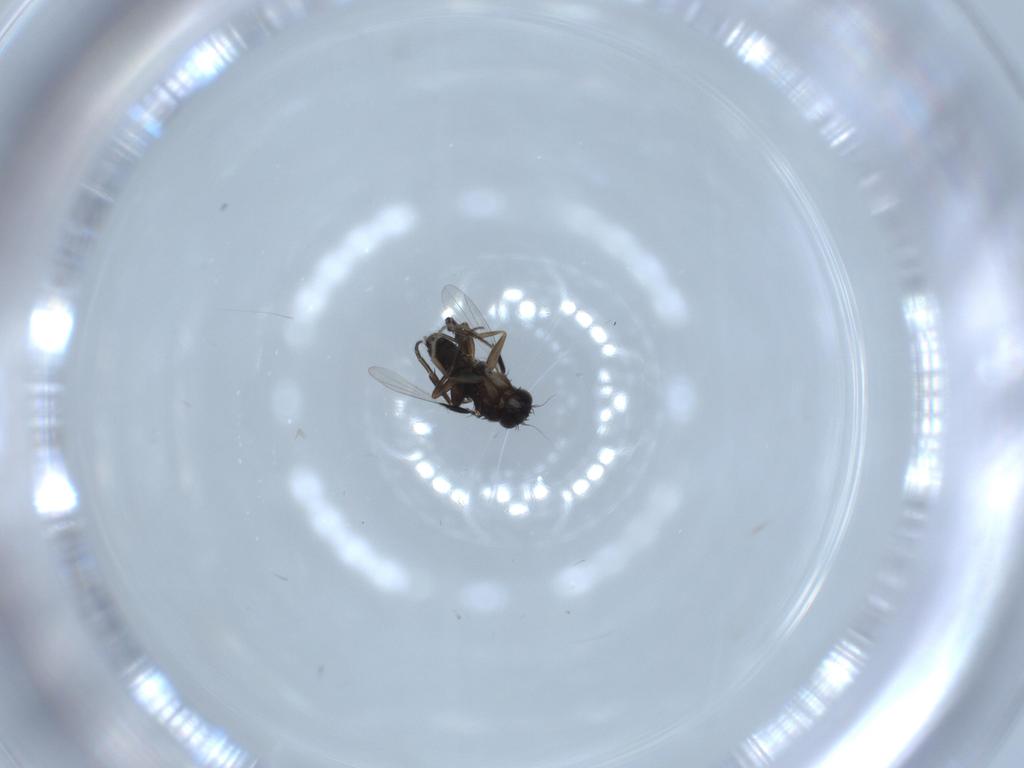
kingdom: Animalia
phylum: Arthropoda
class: Insecta
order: Diptera
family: Phoridae
